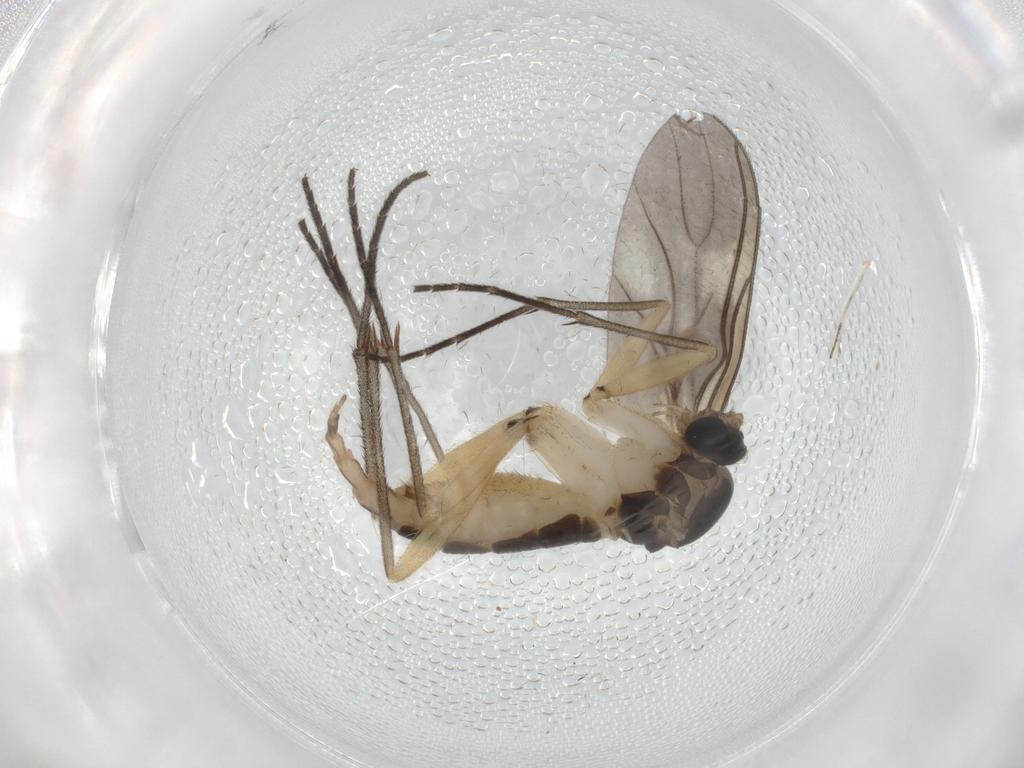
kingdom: Animalia
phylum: Arthropoda
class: Insecta
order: Diptera
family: Sciaridae
